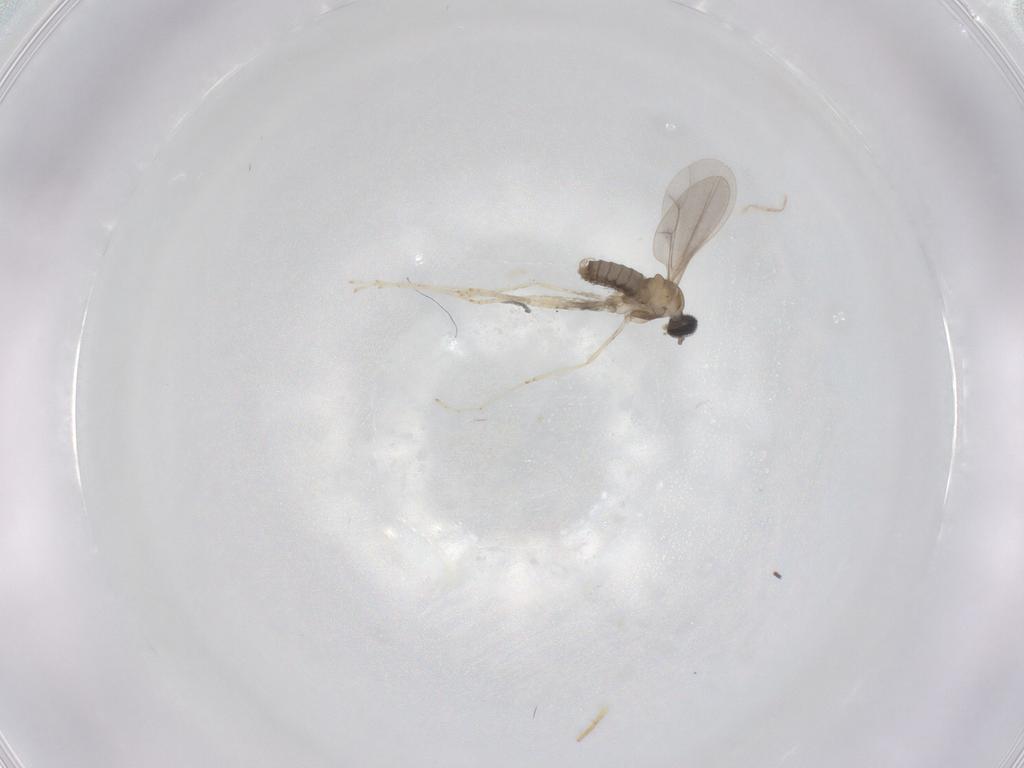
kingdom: Animalia
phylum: Arthropoda
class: Insecta
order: Diptera
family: Cecidomyiidae
